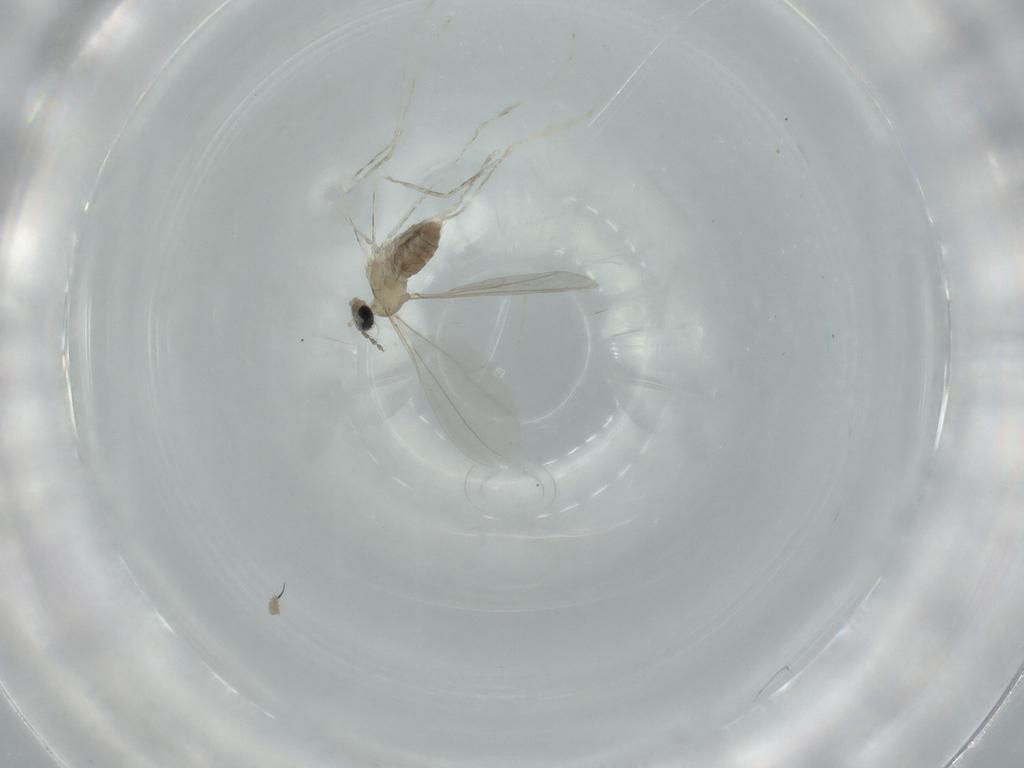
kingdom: Animalia
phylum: Arthropoda
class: Insecta
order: Diptera
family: Cecidomyiidae
